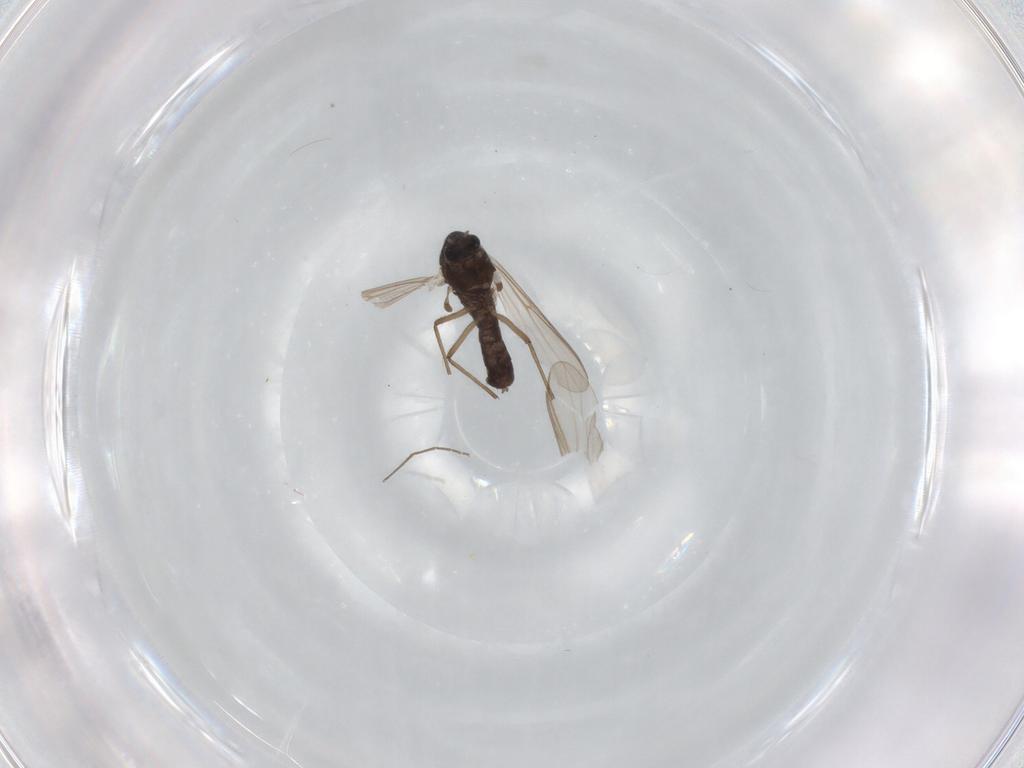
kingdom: Animalia
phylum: Arthropoda
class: Insecta
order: Diptera
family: Chironomidae
